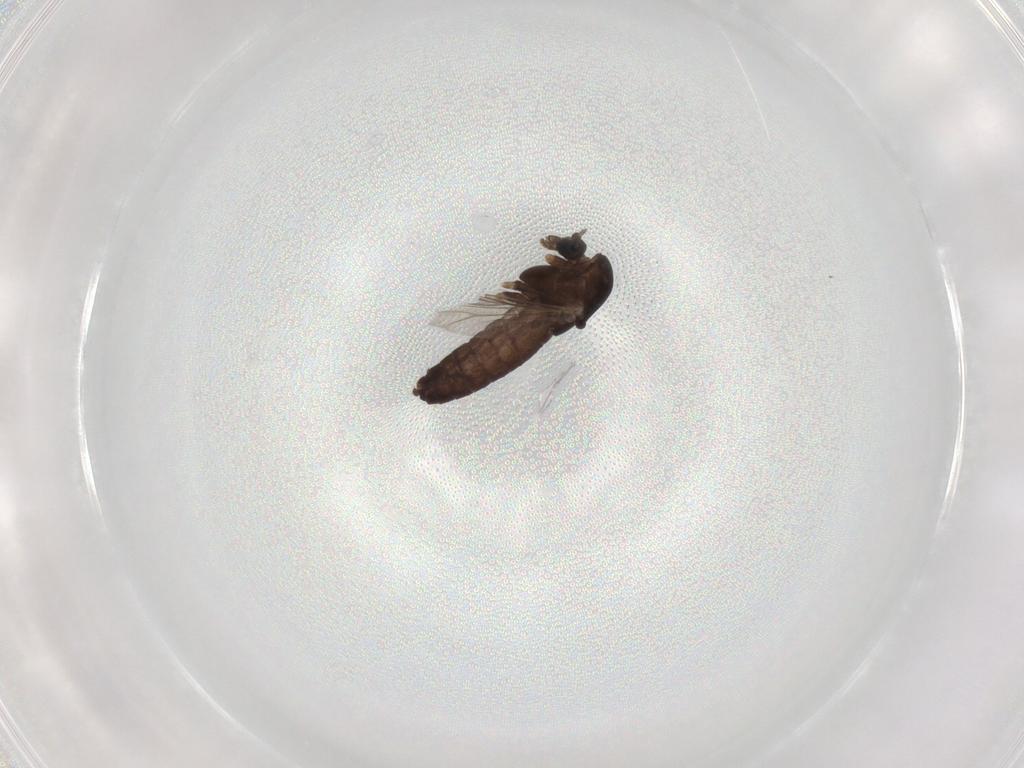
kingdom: Animalia
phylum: Arthropoda
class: Insecta
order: Diptera
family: Chironomidae
